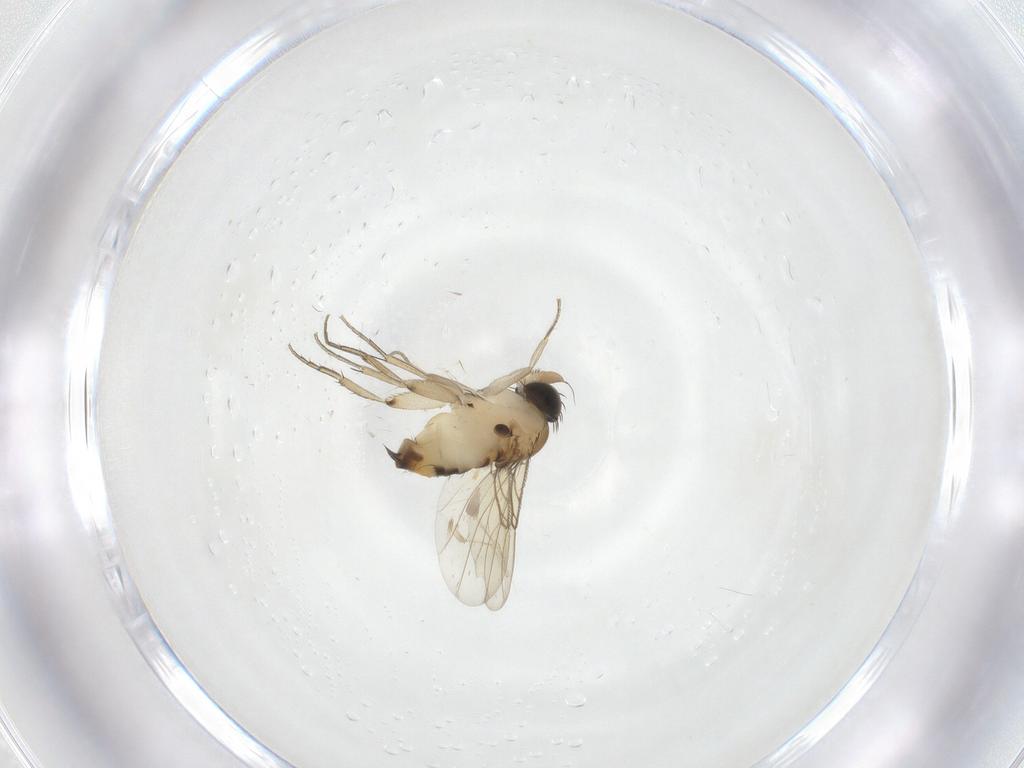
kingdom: Animalia
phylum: Arthropoda
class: Insecta
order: Diptera
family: Phoridae
